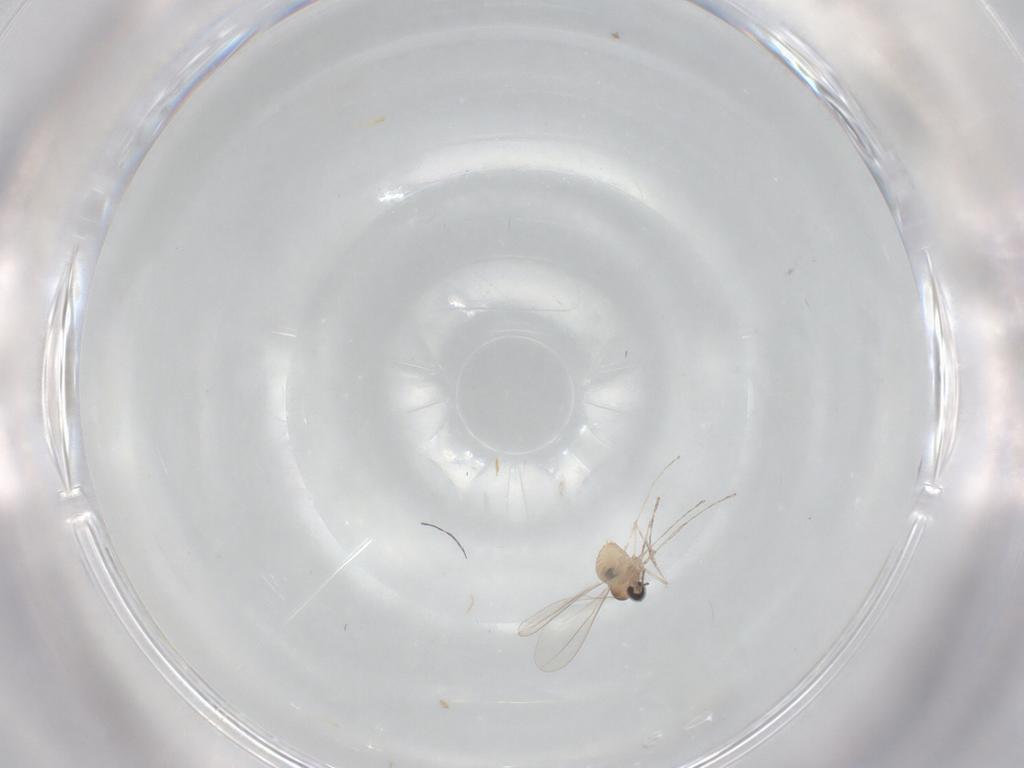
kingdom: Animalia
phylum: Arthropoda
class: Insecta
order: Diptera
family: Cecidomyiidae
